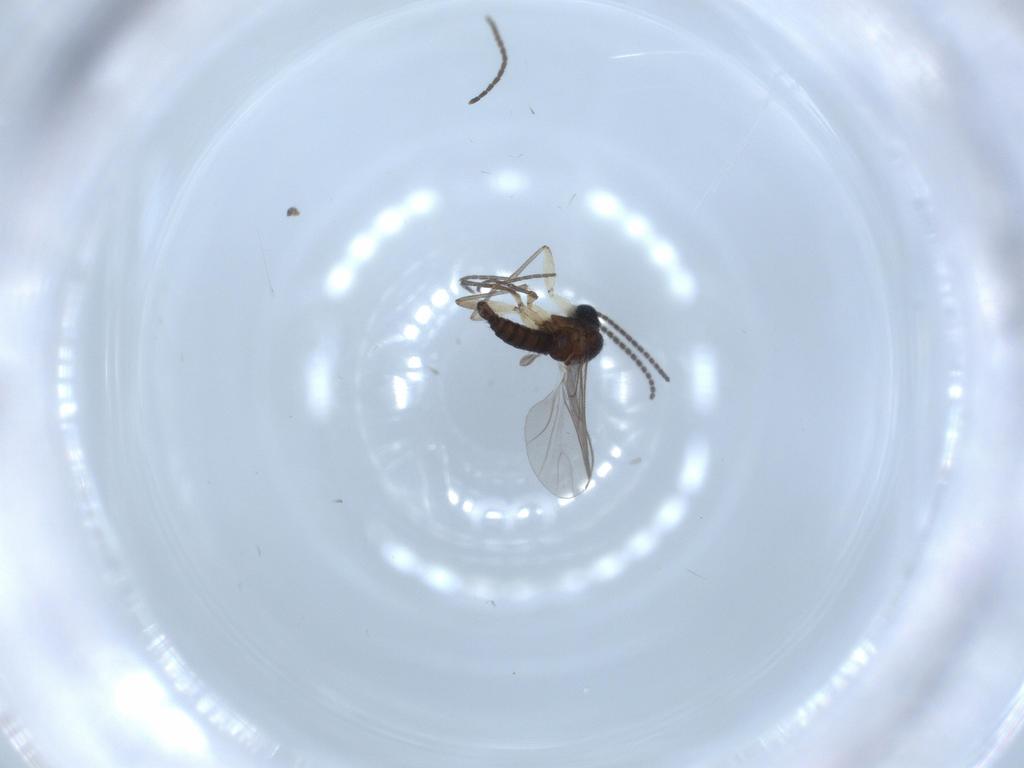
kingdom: Animalia
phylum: Arthropoda
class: Insecta
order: Diptera
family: Sciaridae
